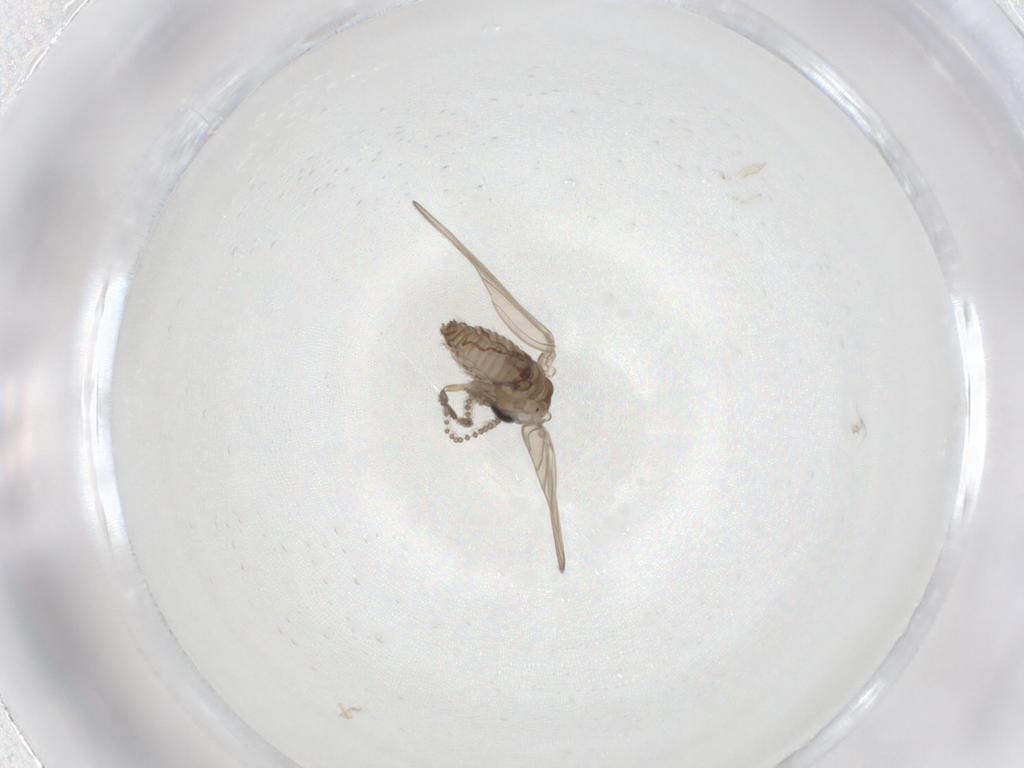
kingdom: Animalia
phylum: Arthropoda
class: Insecta
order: Diptera
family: Psychodidae
